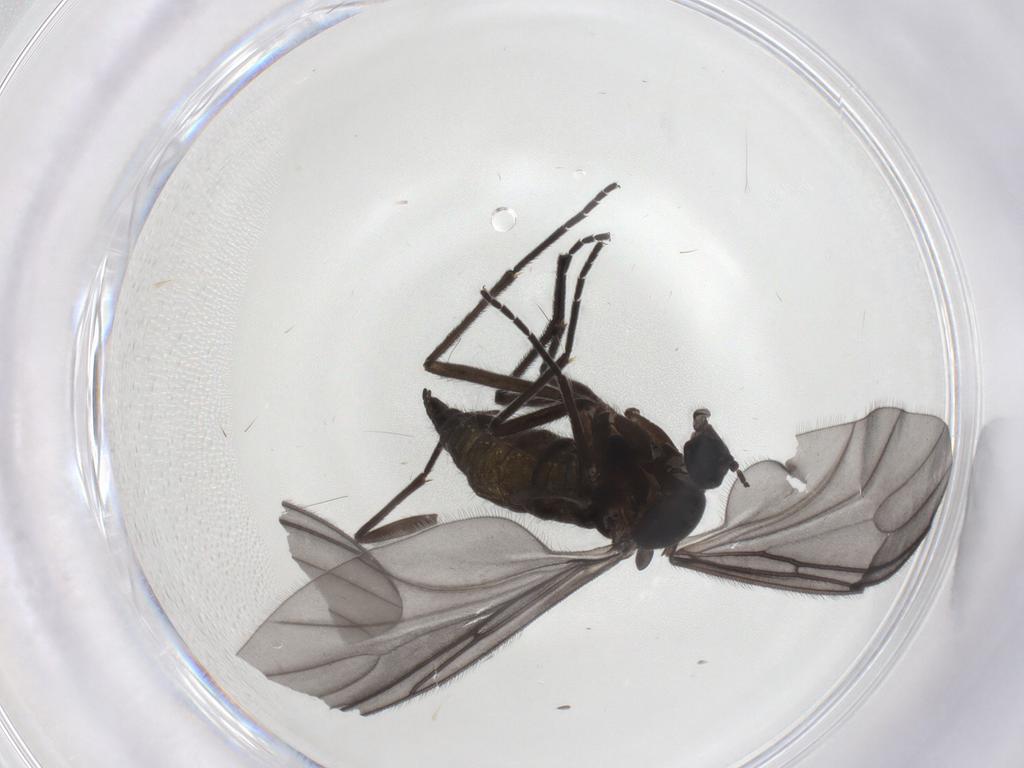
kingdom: Animalia
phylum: Arthropoda
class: Insecta
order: Diptera
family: Sciaridae
